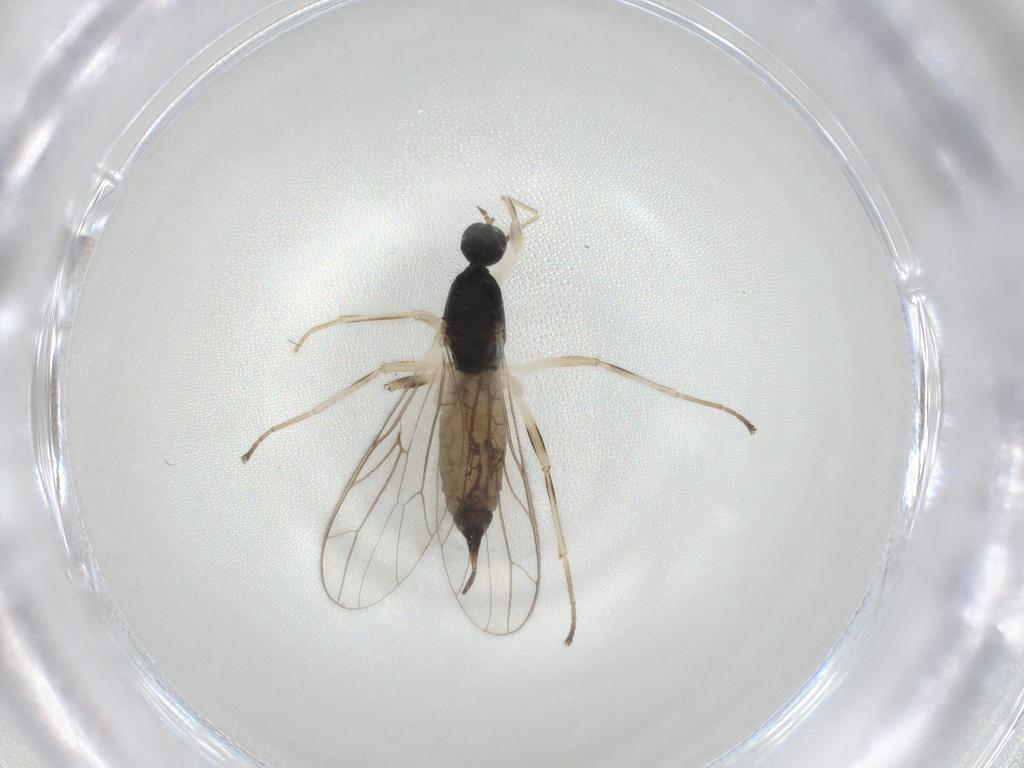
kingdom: Animalia
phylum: Arthropoda
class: Insecta
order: Diptera
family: Empididae
